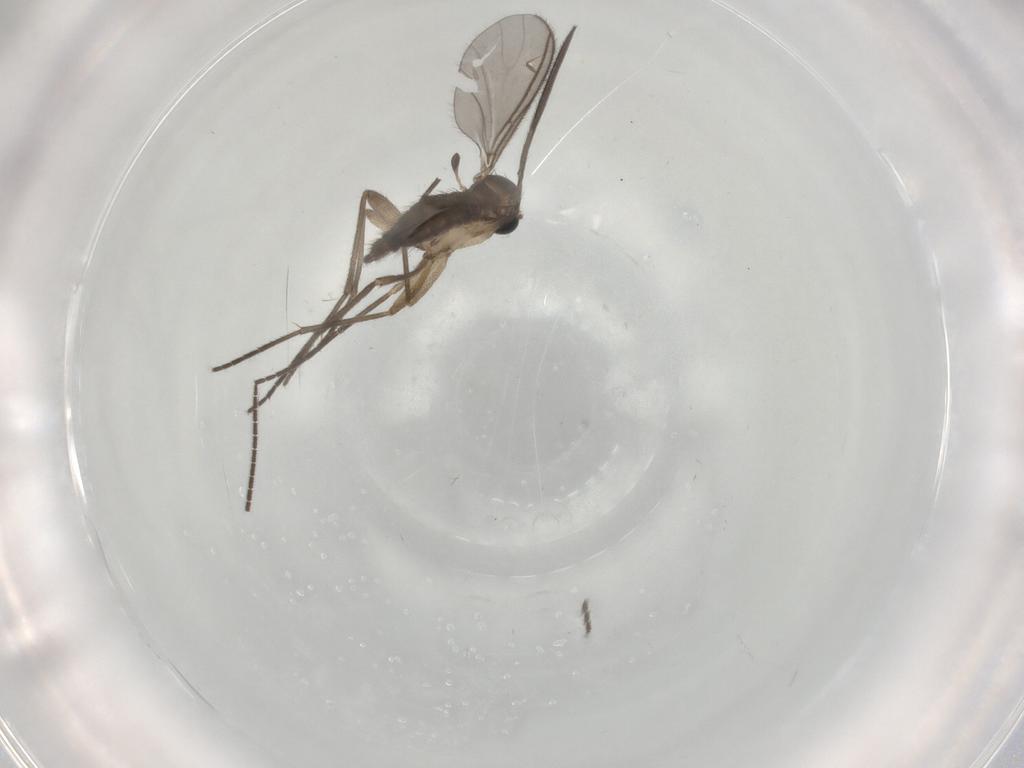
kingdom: Animalia
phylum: Arthropoda
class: Insecta
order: Diptera
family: Sciaridae
